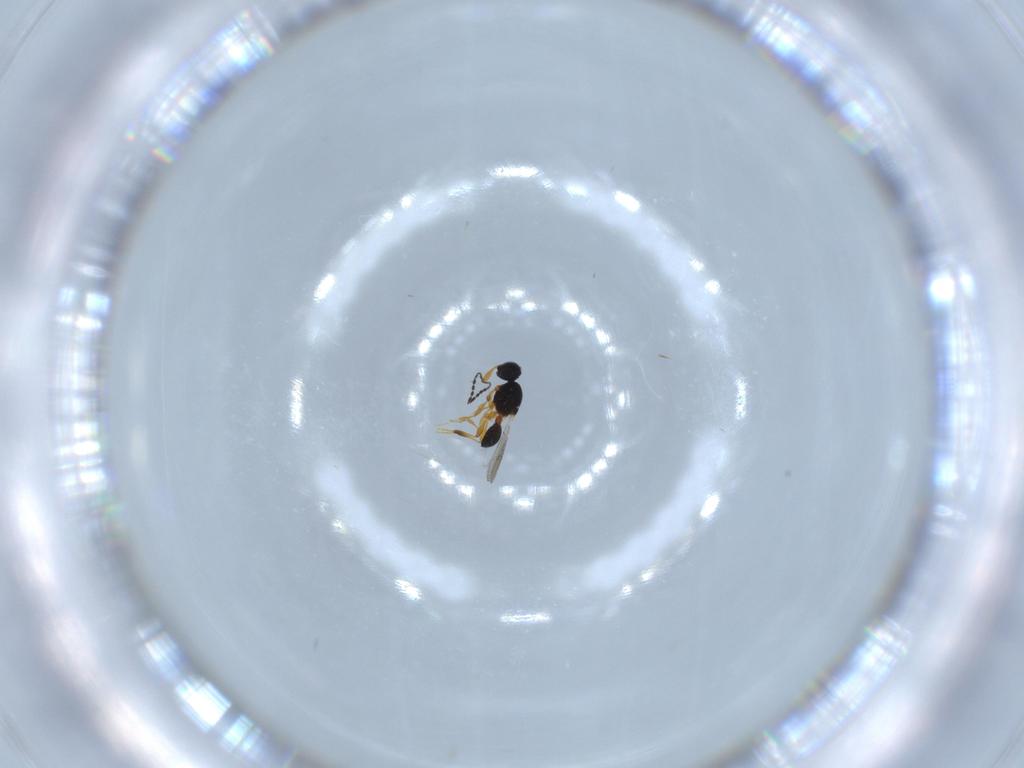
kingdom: Animalia
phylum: Arthropoda
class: Insecta
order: Hymenoptera
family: Platygastridae
